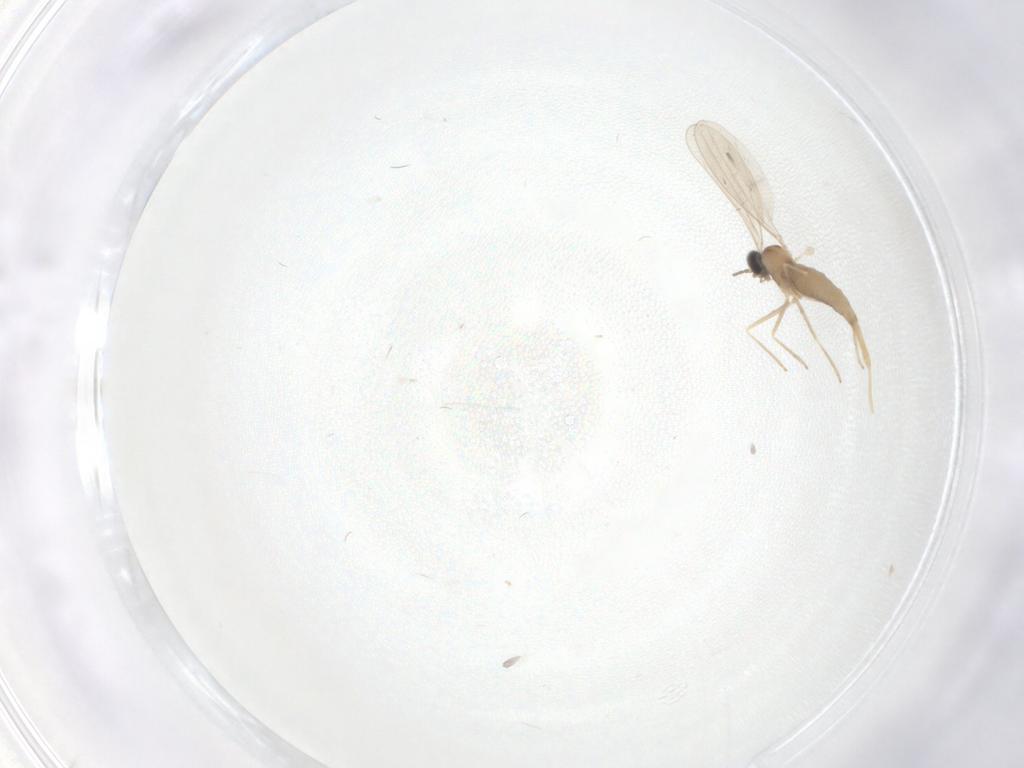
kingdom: Animalia
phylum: Arthropoda
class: Insecta
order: Diptera
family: Cecidomyiidae
